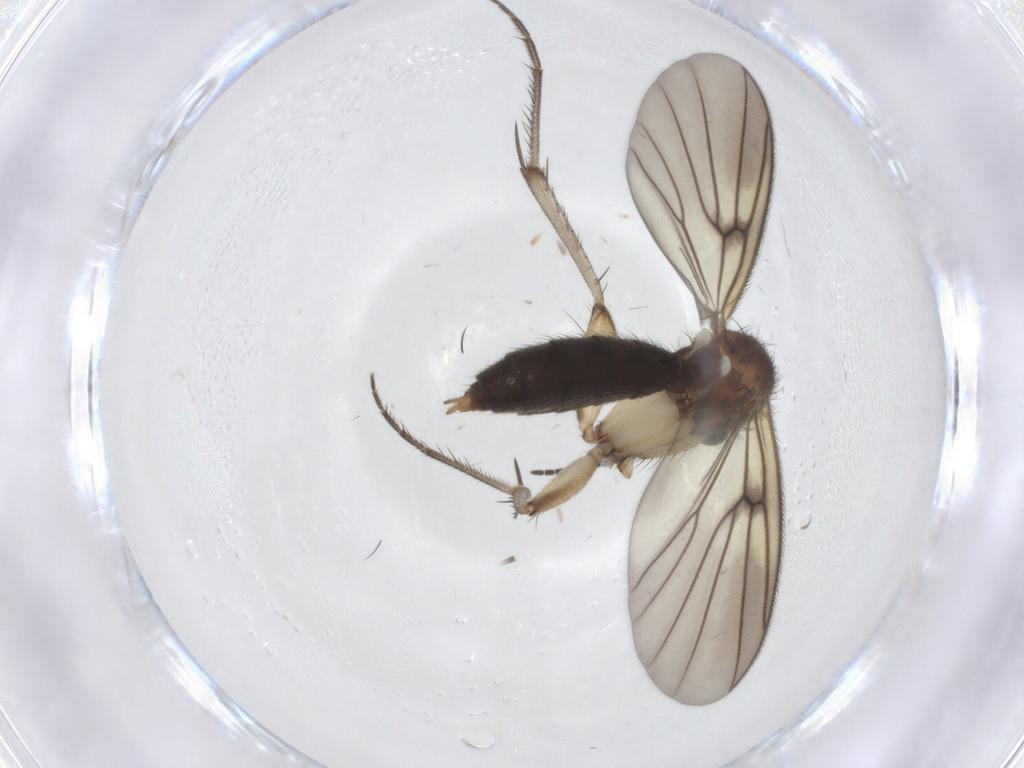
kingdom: Animalia
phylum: Arthropoda
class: Insecta
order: Diptera
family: Mycetophilidae
